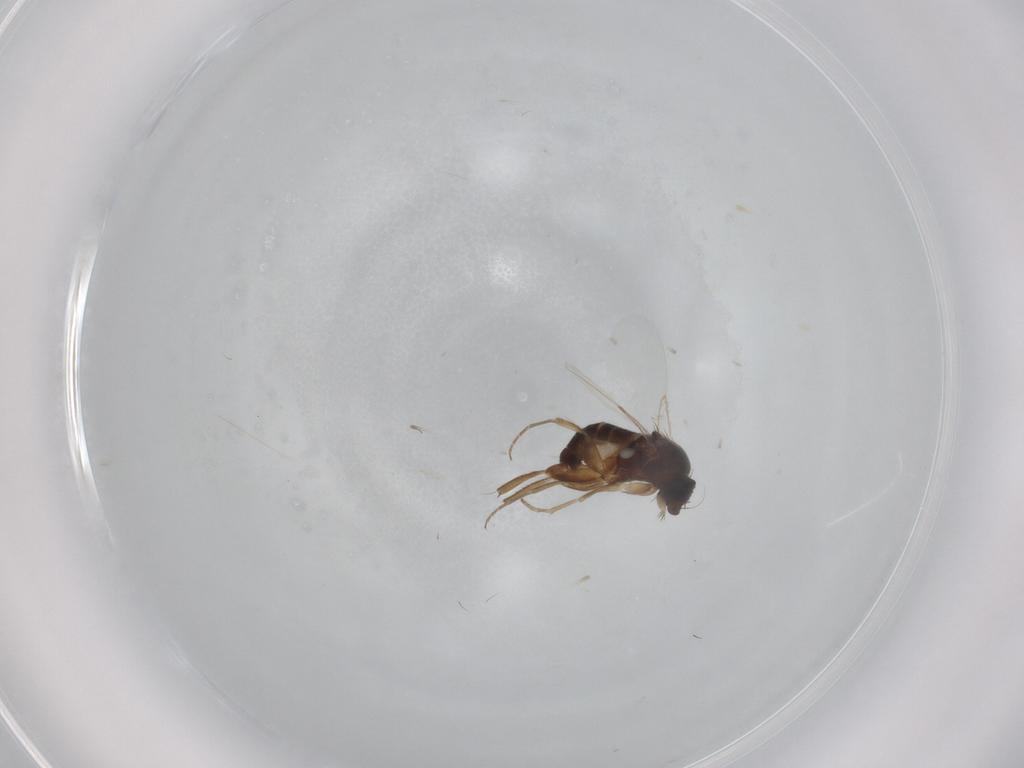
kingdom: Animalia
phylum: Arthropoda
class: Insecta
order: Diptera
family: Phoridae
